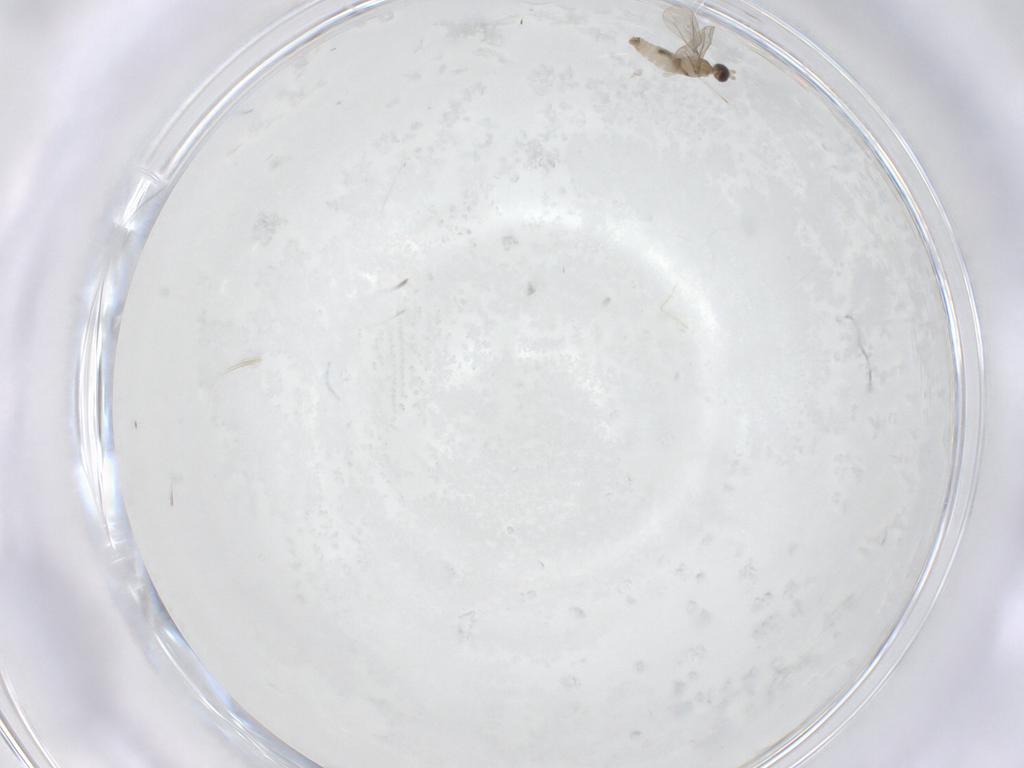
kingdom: Animalia
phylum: Arthropoda
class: Insecta
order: Diptera
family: Cecidomyiidae
